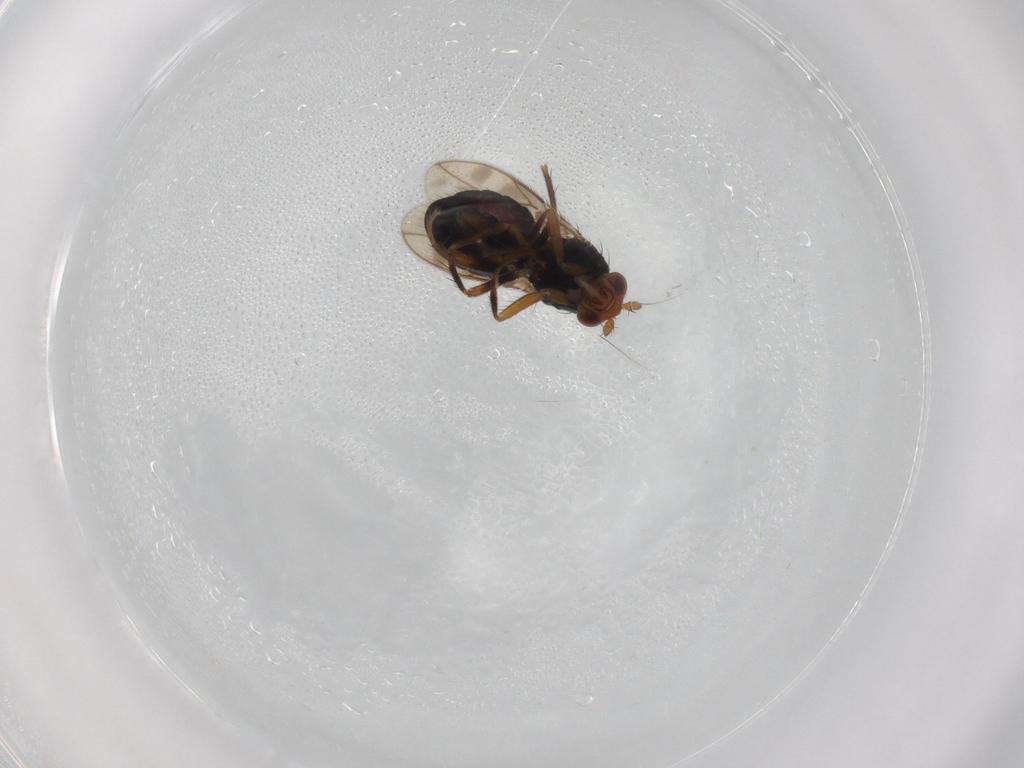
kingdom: Animalia
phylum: Arthropoda
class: Insecta
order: Diptera
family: Sphaeroceridae
